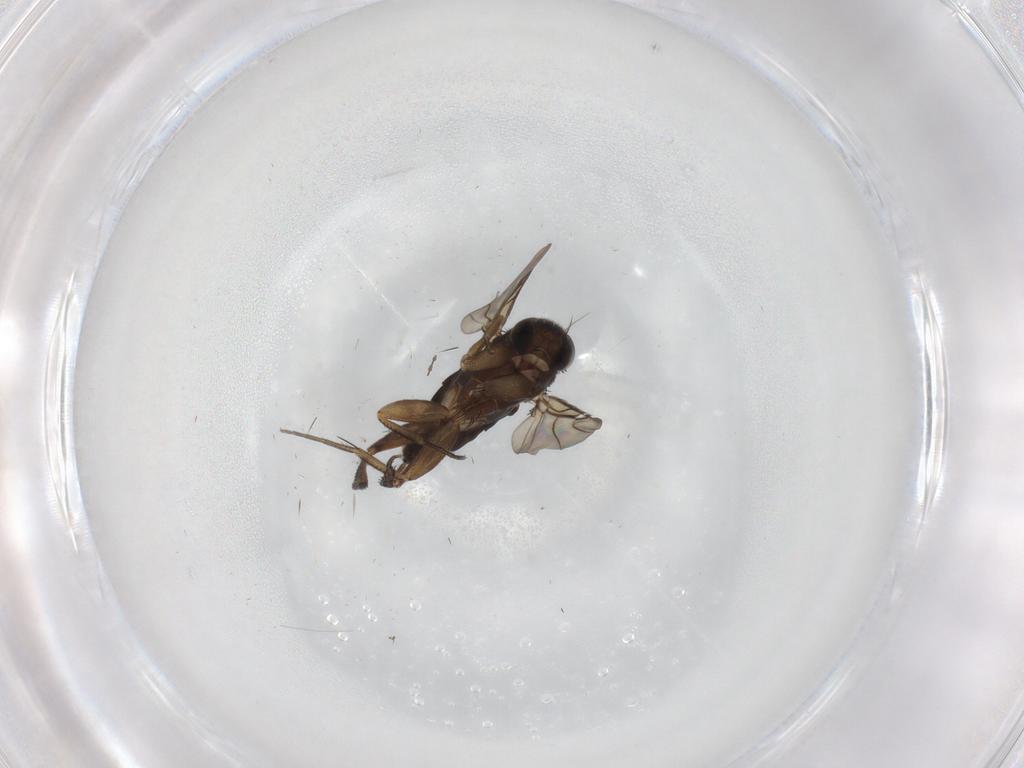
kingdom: Animalia
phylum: Arthropoda
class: Insecta
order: Diptera
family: Phoridae
